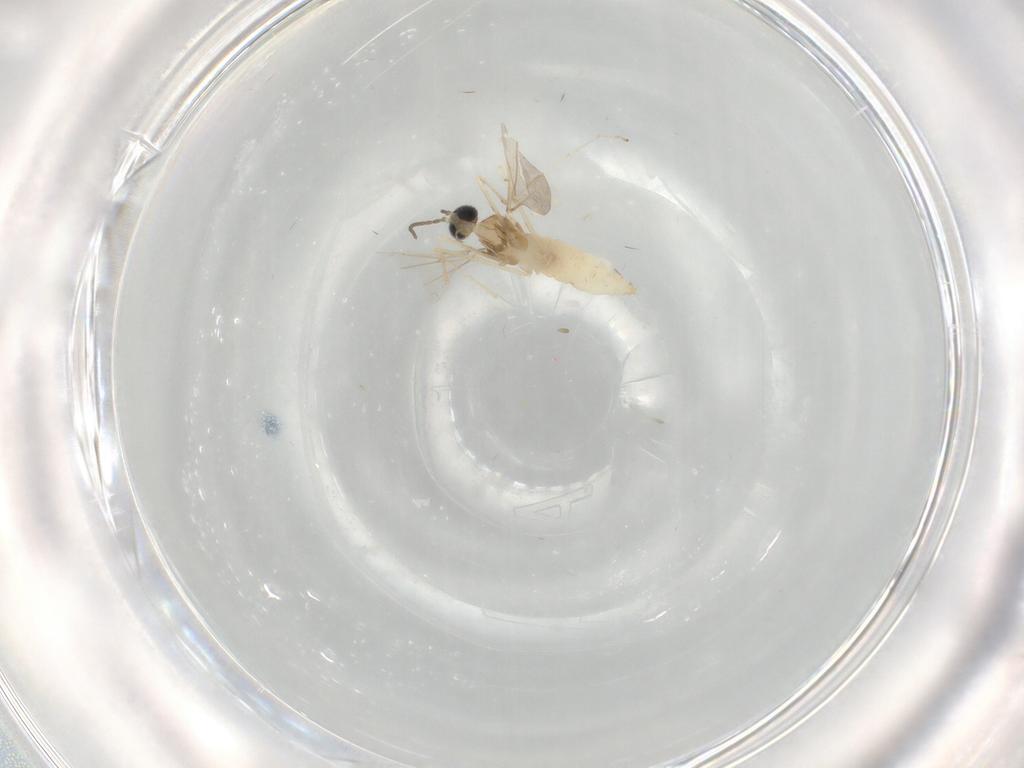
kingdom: Animalia
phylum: Arthropoda
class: Insecta
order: Diptera
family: Cecidomyiidae
